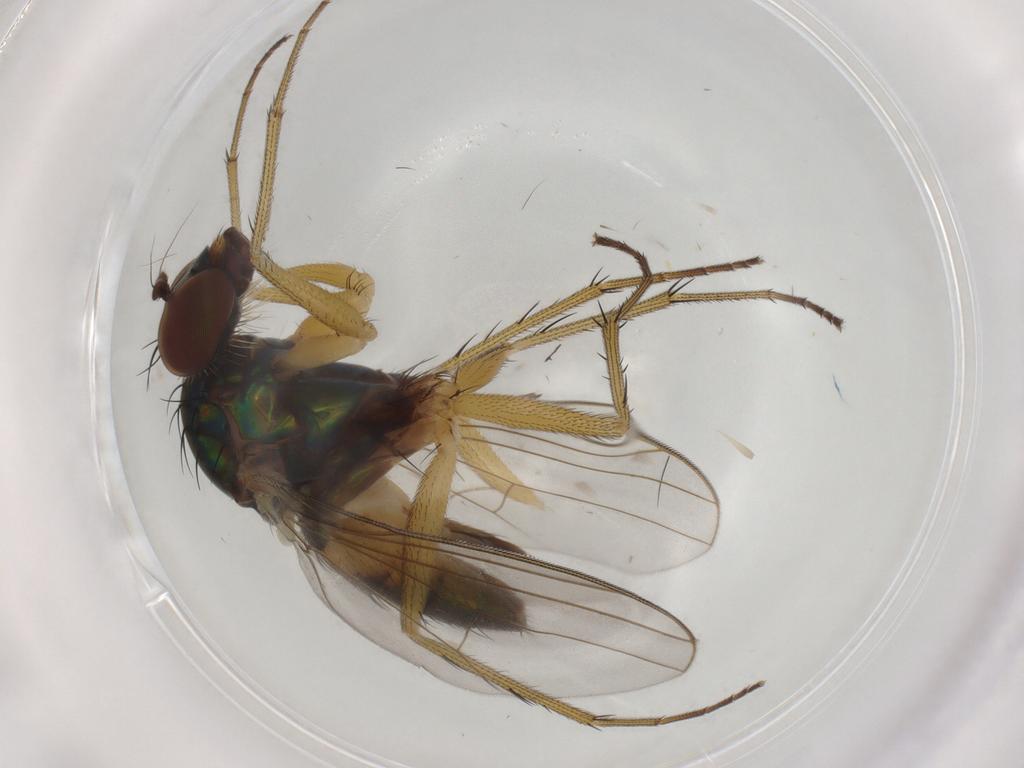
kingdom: Animalia
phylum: Arthropoda
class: Insecta
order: Diptera
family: Dolichopodidae
